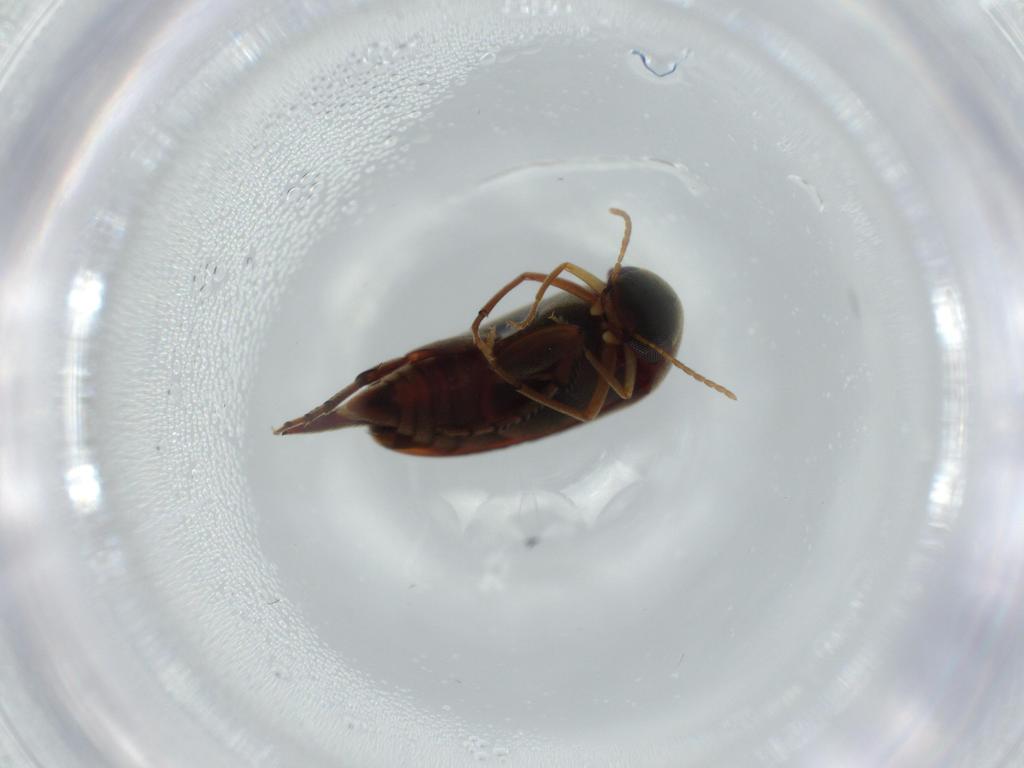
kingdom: Animalia
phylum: Arthropoda
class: Insecta
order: Coleoptera
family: Mordellidae
